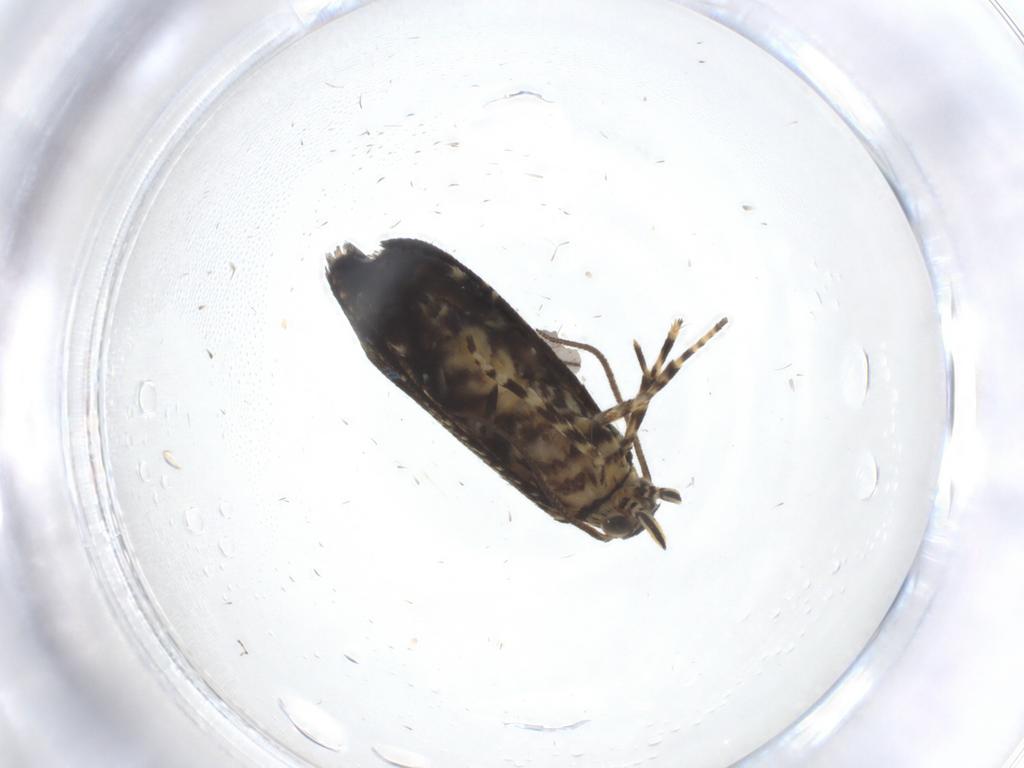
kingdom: Animalia
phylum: Arthropoda
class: Insecta
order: Lepidoptera
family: Geometridae
